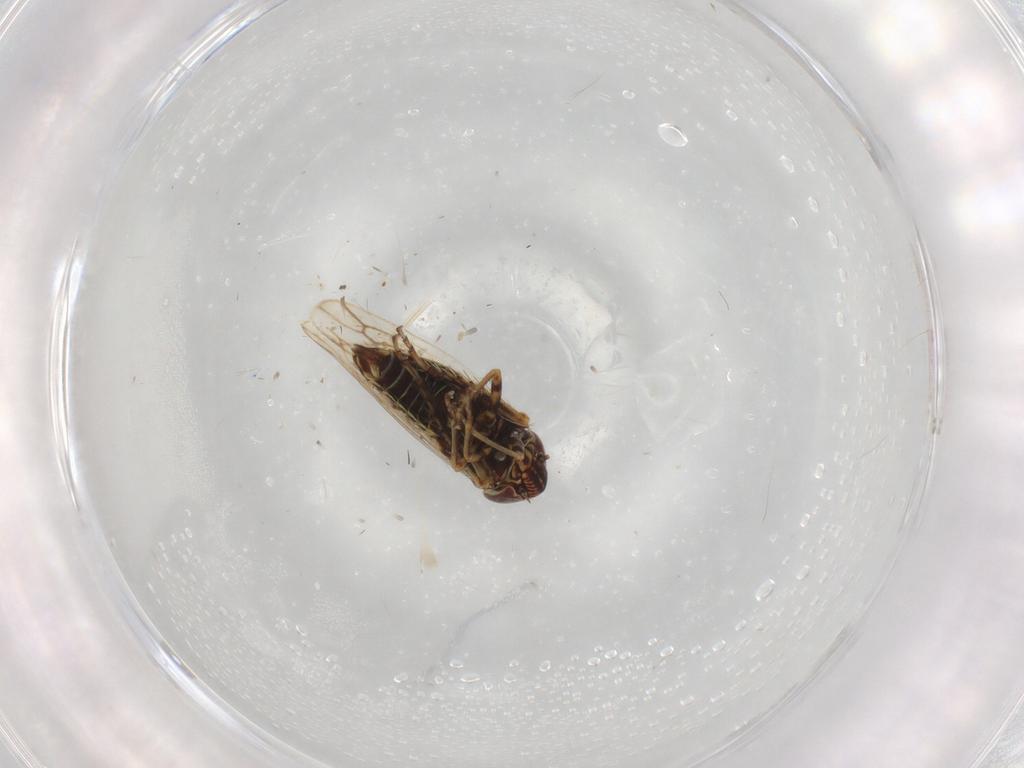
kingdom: Animalia
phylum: Arthropoda
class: Insecta
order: Hemiptera
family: Cicadellidae
